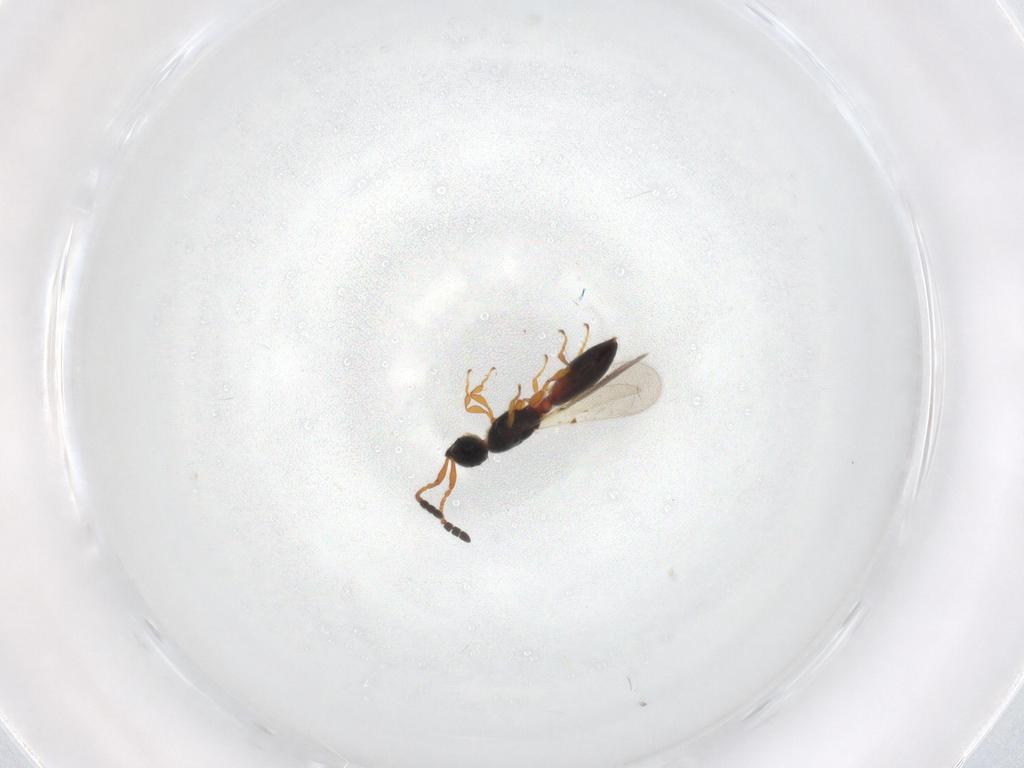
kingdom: Animalia
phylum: Arthropoda
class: Insecta
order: Hymenoptera
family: Diapriidae
